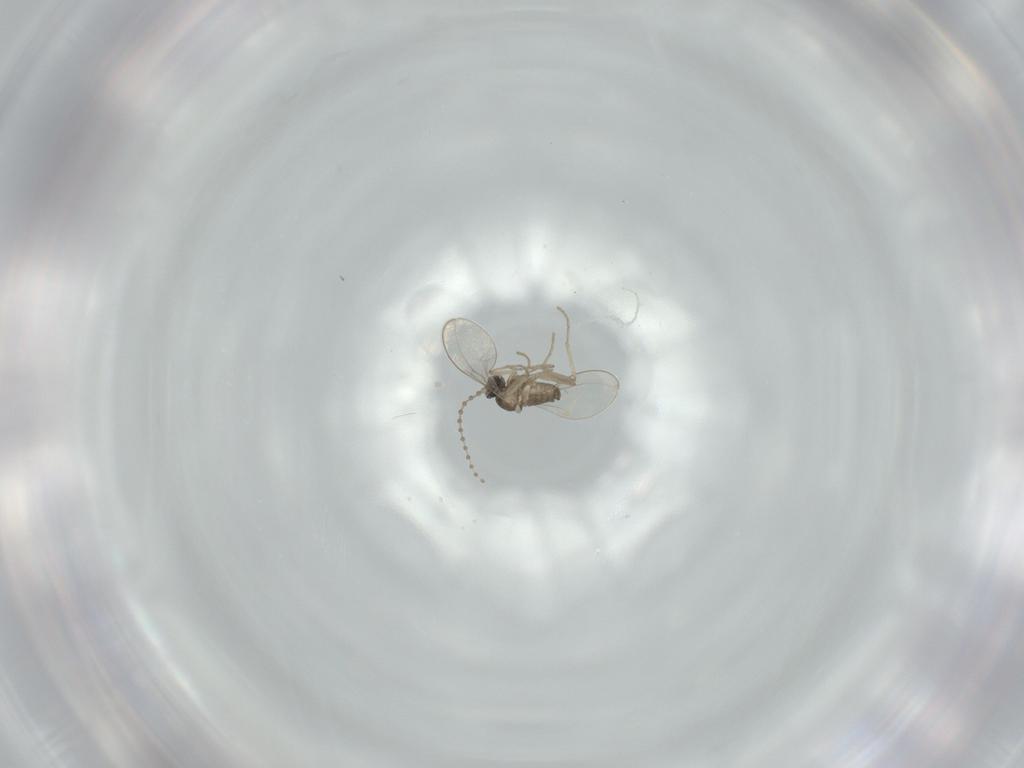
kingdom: Animalia
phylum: Arthropoda
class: Insecta
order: Diptera
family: Cecidomyiidae
